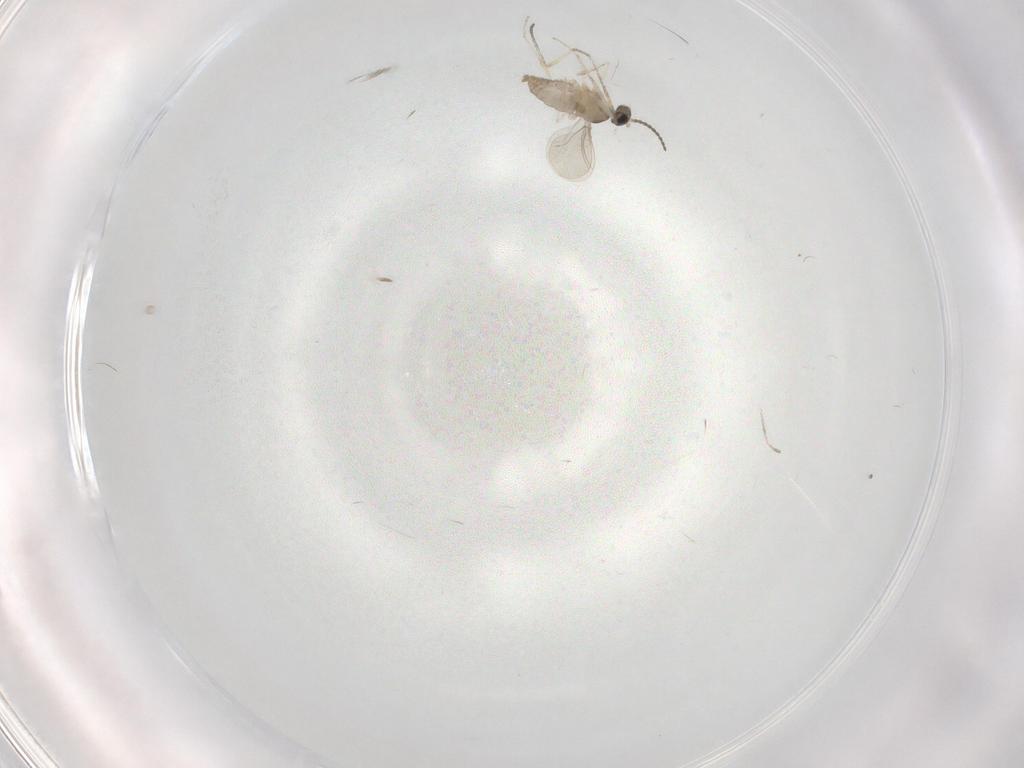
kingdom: Animalia
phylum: Arthropoda
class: Insecta
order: Diptera
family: Cecidomyiidae
